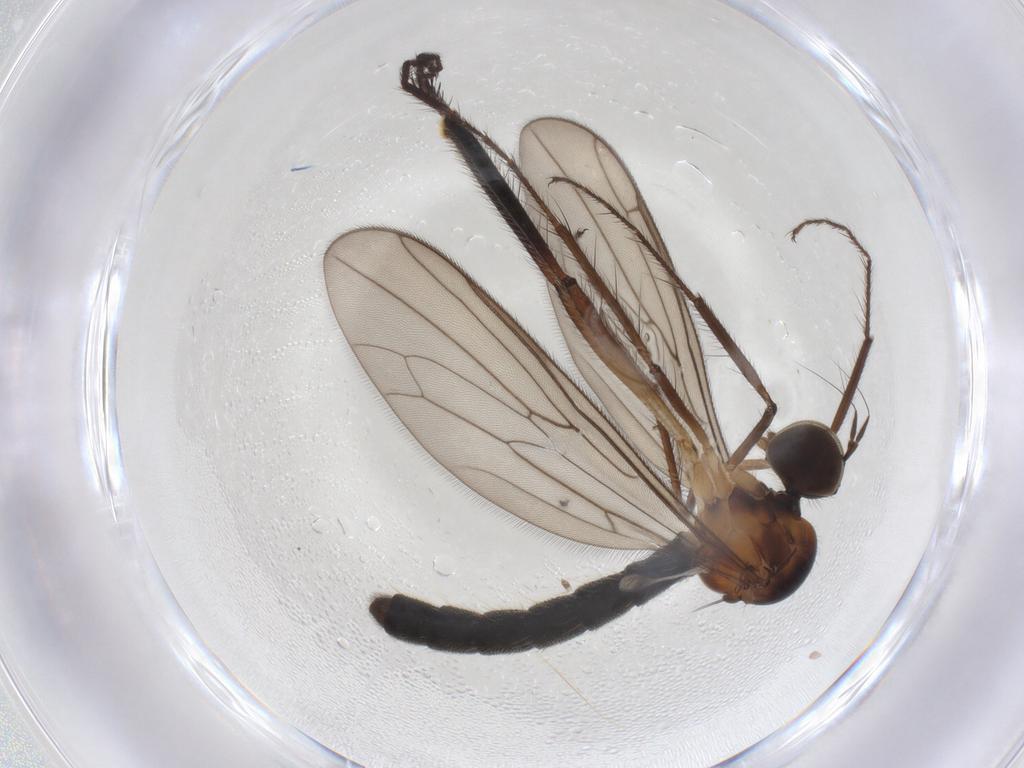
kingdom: Animalia
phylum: Arthropoda
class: Insecta
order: Diptera
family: Hybotidae
